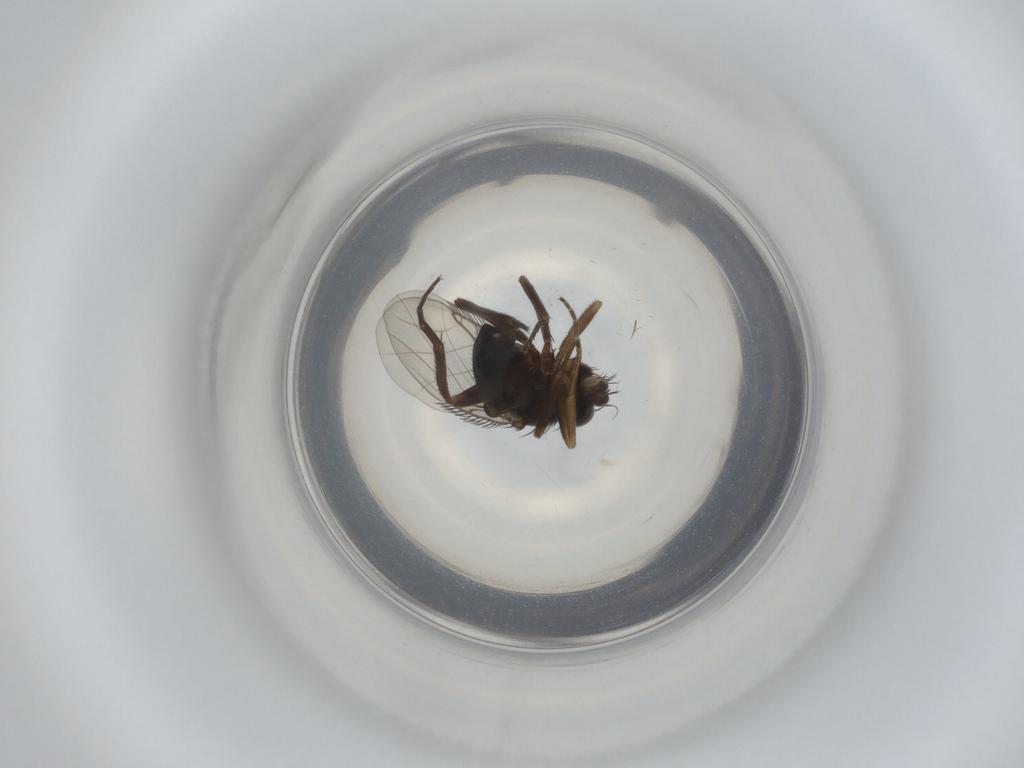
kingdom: Animalia
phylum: Arthropoda
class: Insecta
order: Diptera
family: Phoridae
